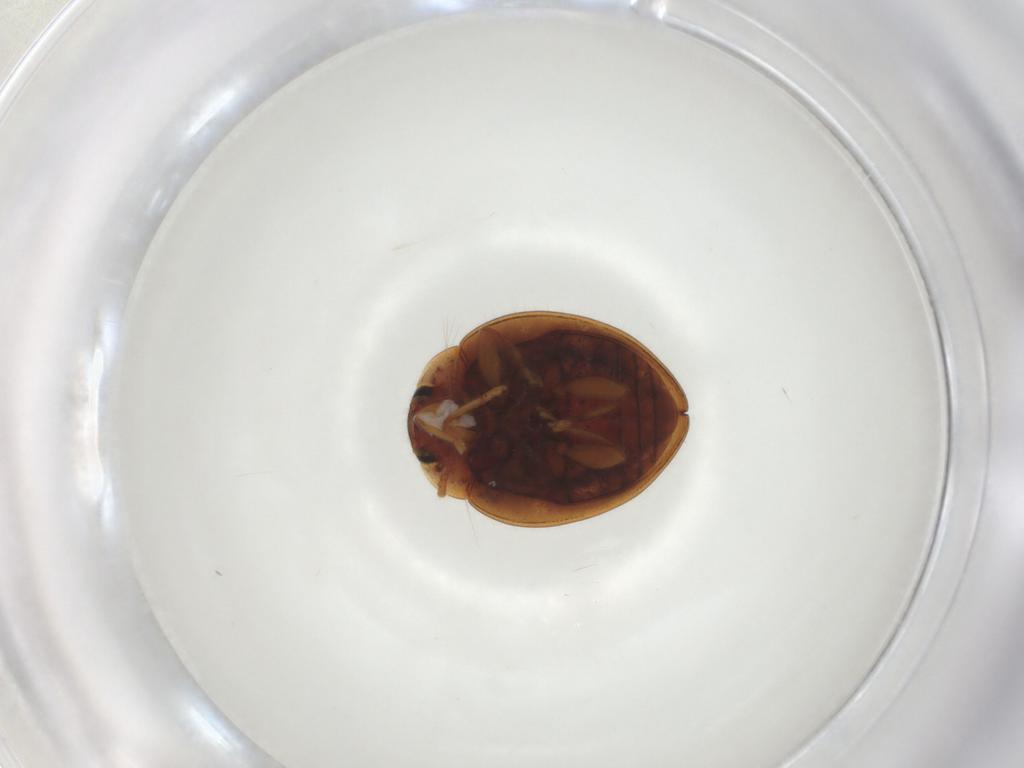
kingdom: Animalia
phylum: Arthropoda
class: Insecta
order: Coleoptera
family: Coccinellidae
